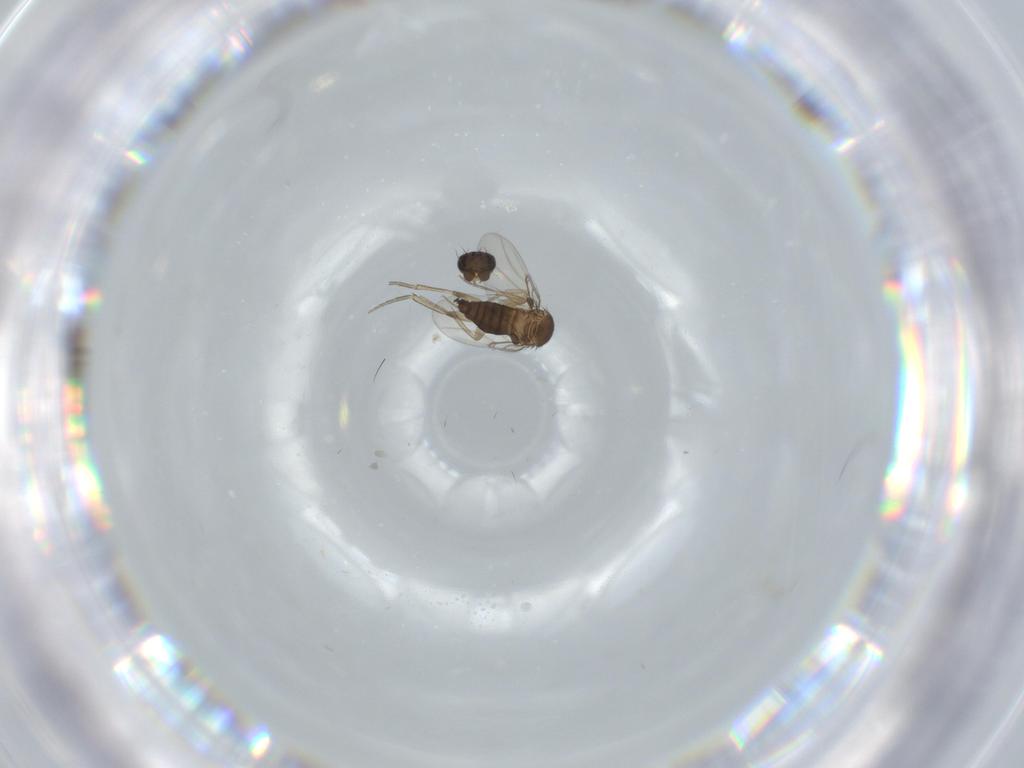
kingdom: Animalia
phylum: Arthropoda
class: Insecta
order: Diptera
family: Phoridae
